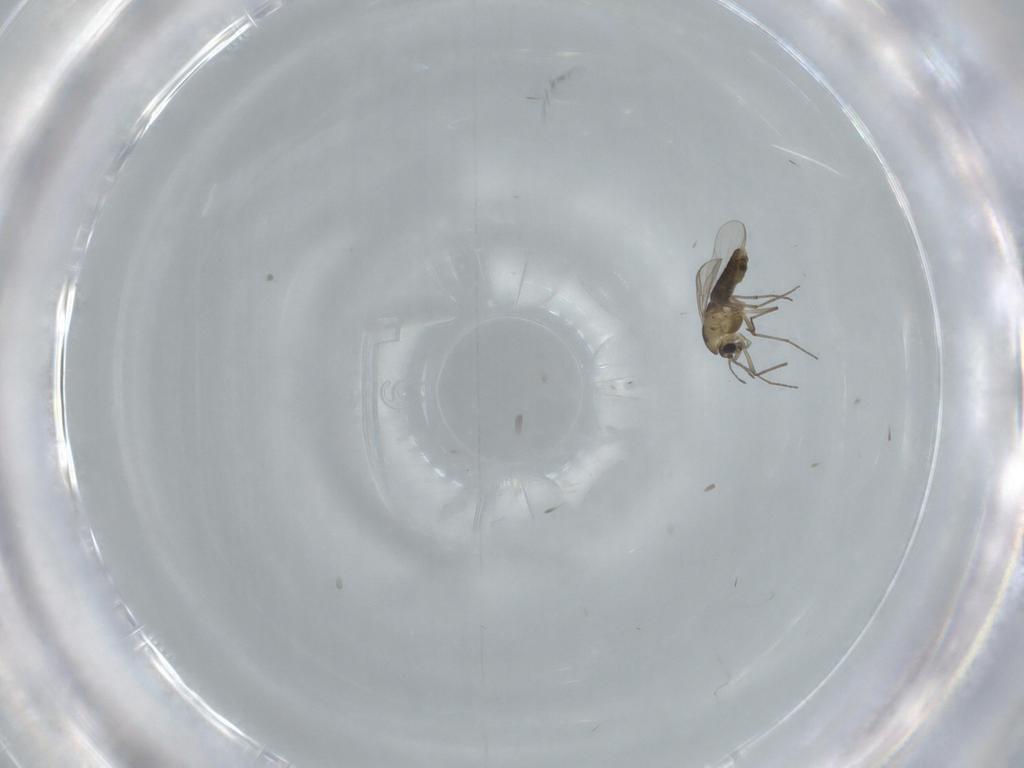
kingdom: Animalia
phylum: Arthropoda
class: Insecta
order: Diptera
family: Chironomidae
